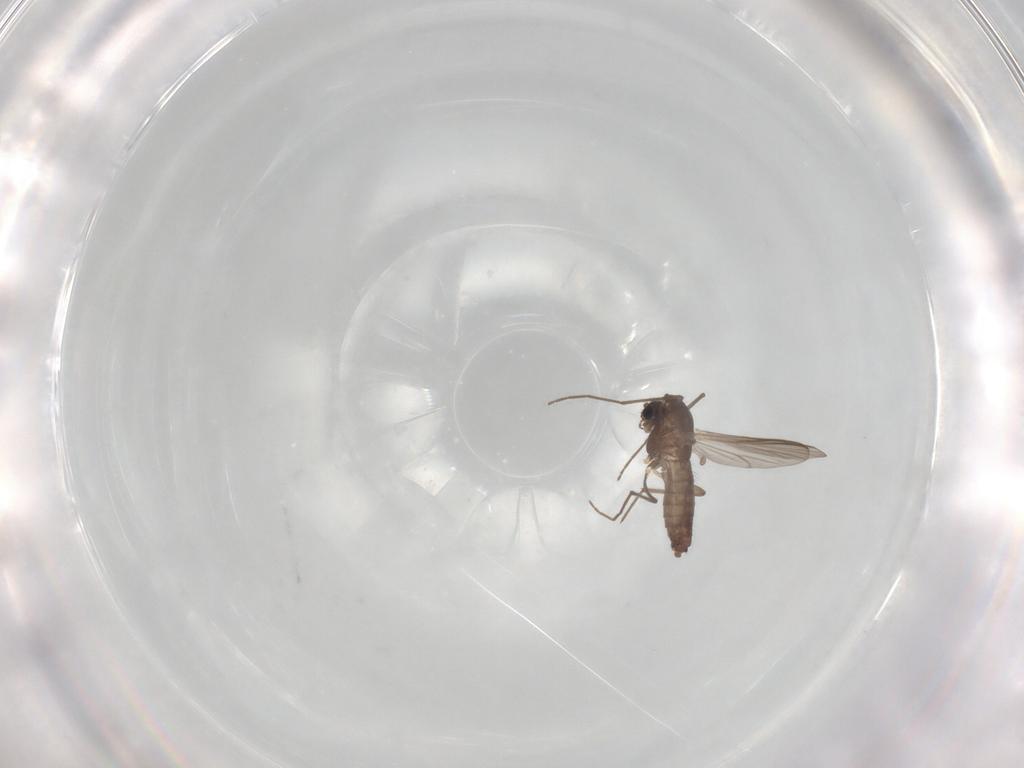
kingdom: Animalia
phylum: Arthropoda
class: Insecta
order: Diptera
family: Chironomidae
